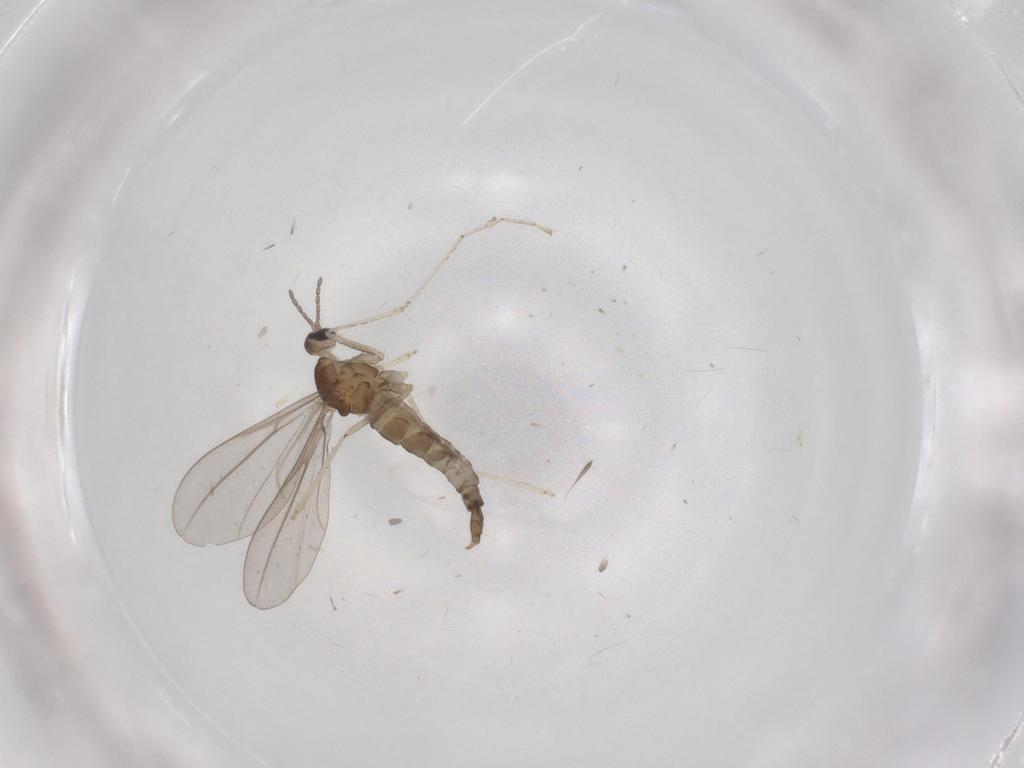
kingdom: Animalia
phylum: Arthropoda
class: Insecta
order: Diptera
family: Cecidomyiidae
